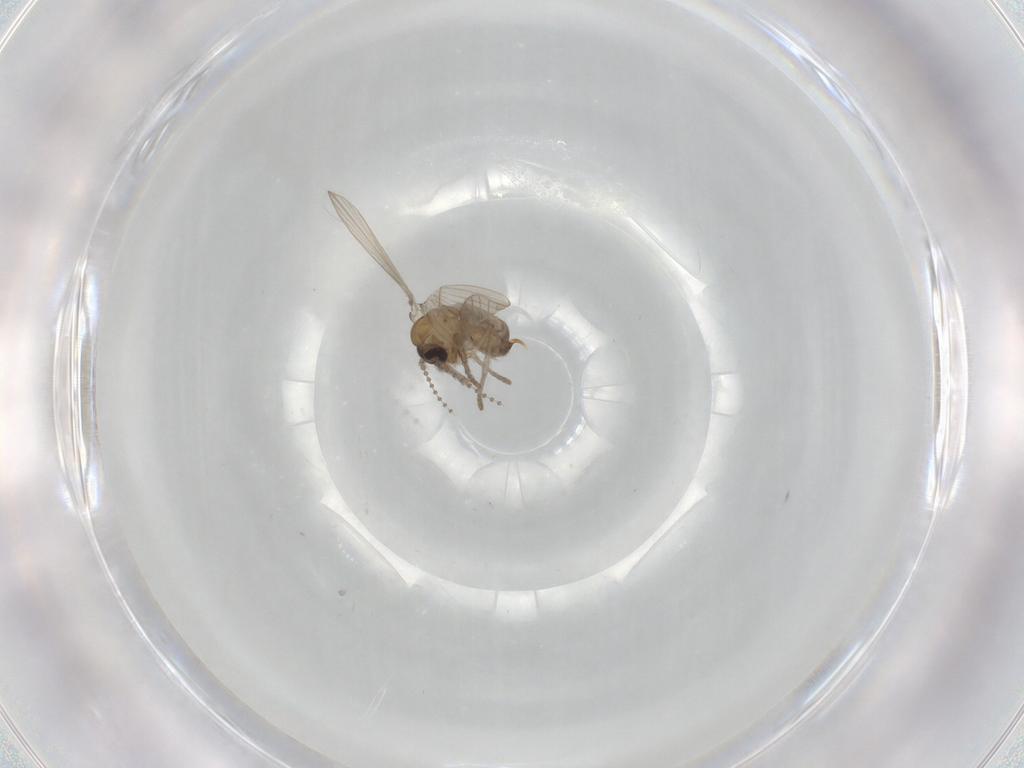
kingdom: Animalia
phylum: Arthropoda
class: Insecta
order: Diptera
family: Psychodidae
